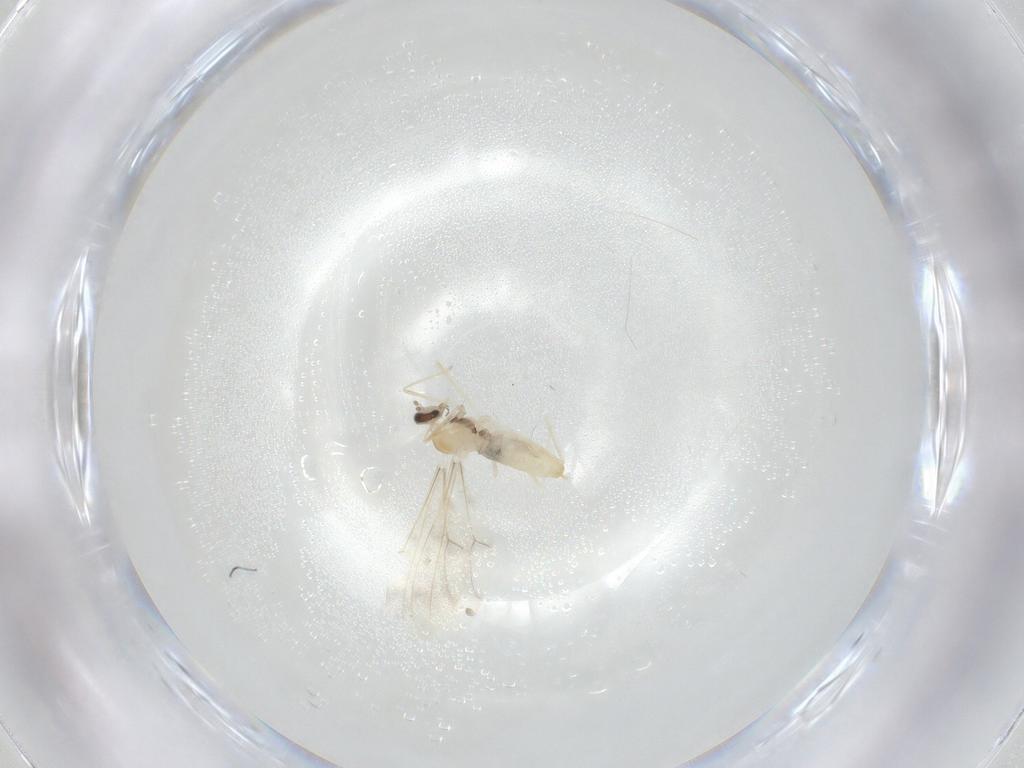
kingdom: Animalia
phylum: Arthropoda
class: Insecta
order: Diptera
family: Cecidomyiidae
